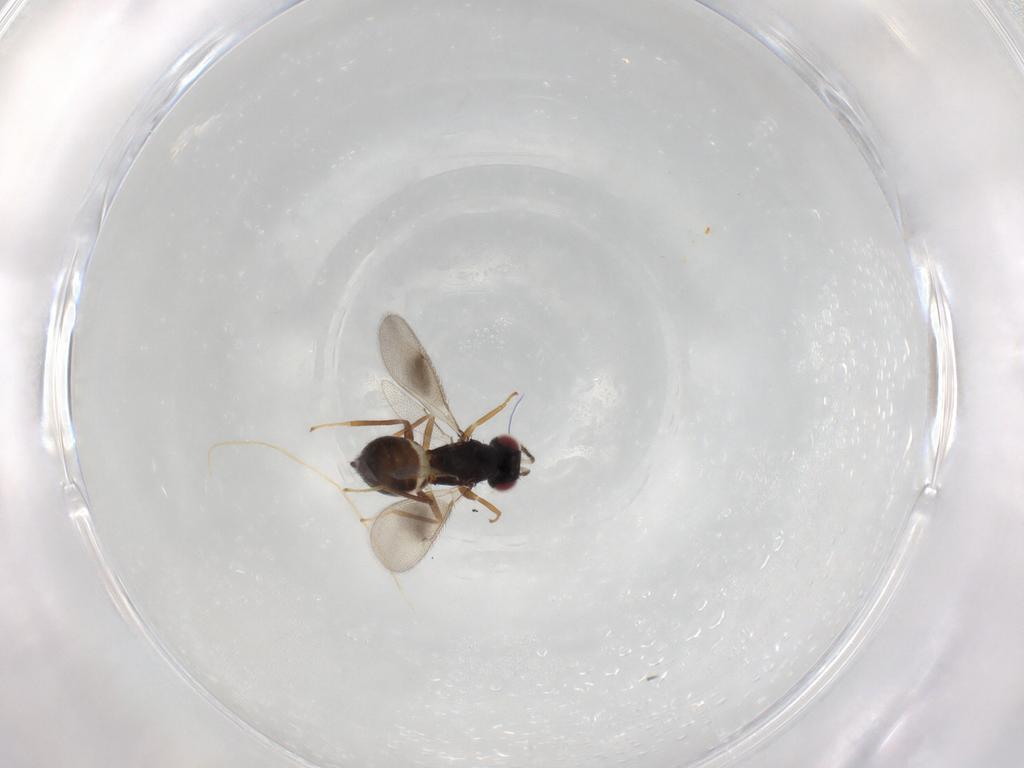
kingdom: Animalia
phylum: Arthropoda
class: Insecta
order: Hymenoptera
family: Eulophidae
